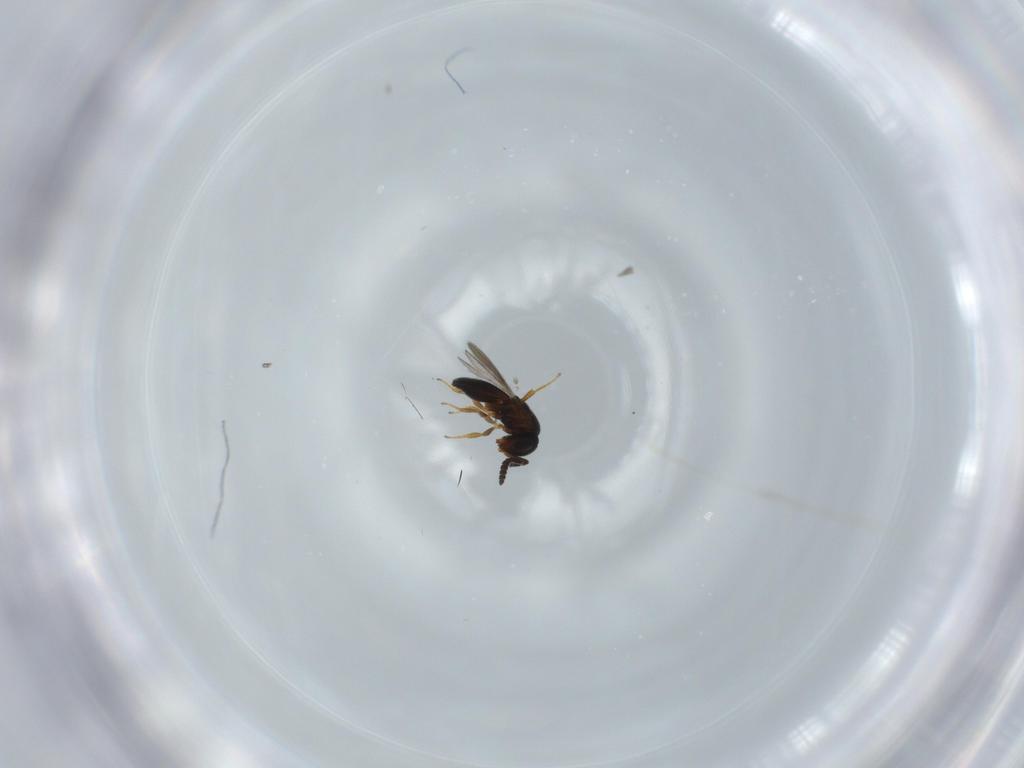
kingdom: Animalia
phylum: Arthropoda
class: Insecta
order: Hymenoptera
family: Scelionidae
